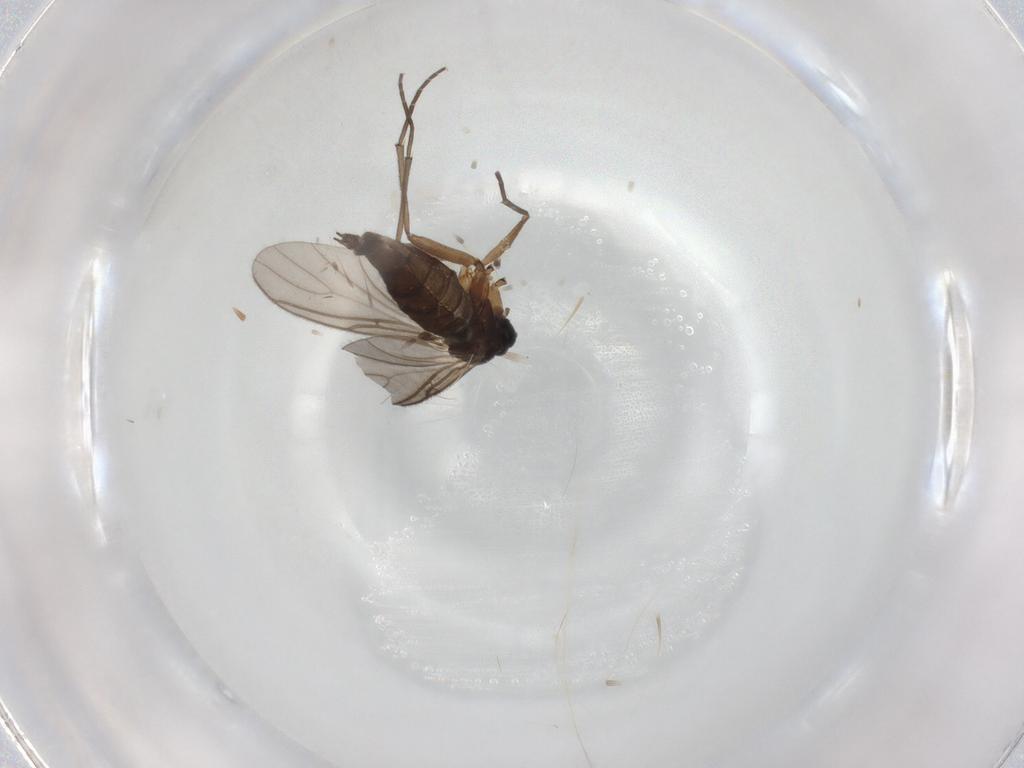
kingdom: Animalia
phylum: Arthropoda
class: Insecta
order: Diptera
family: Sciaridae
